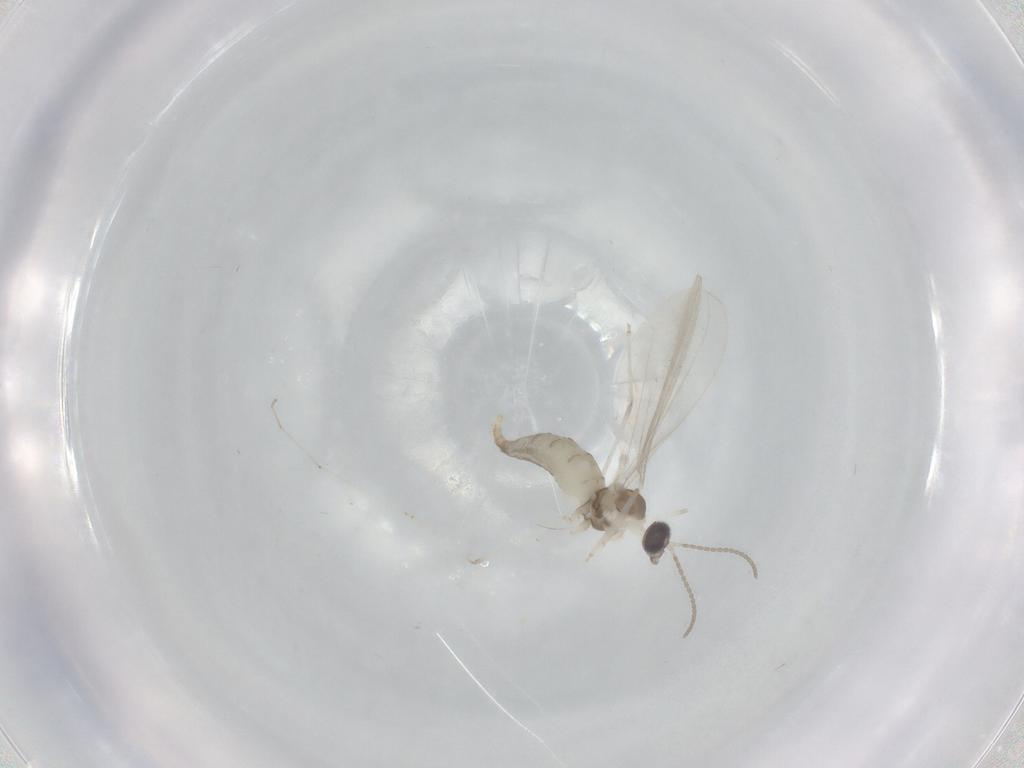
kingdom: Animalia
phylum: Arthropoda
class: Insecta
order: Diptera
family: Cecidomyiidae
